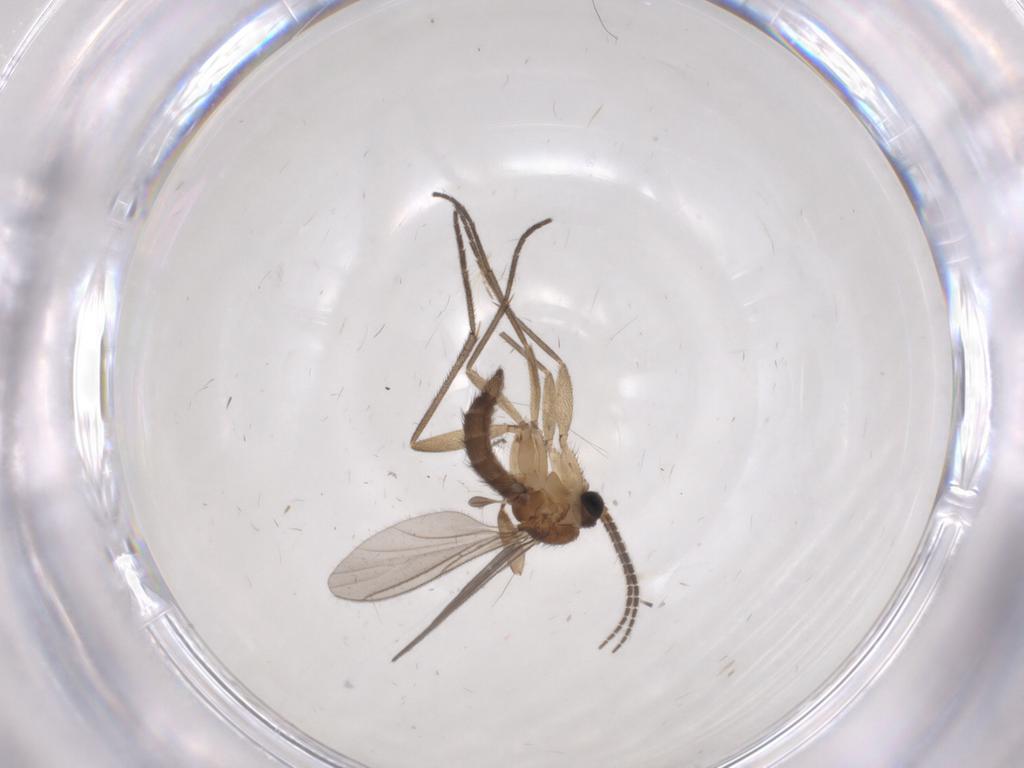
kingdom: Animalia
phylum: Arthropoda
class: Insecta
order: Diptera
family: Sciaridae
